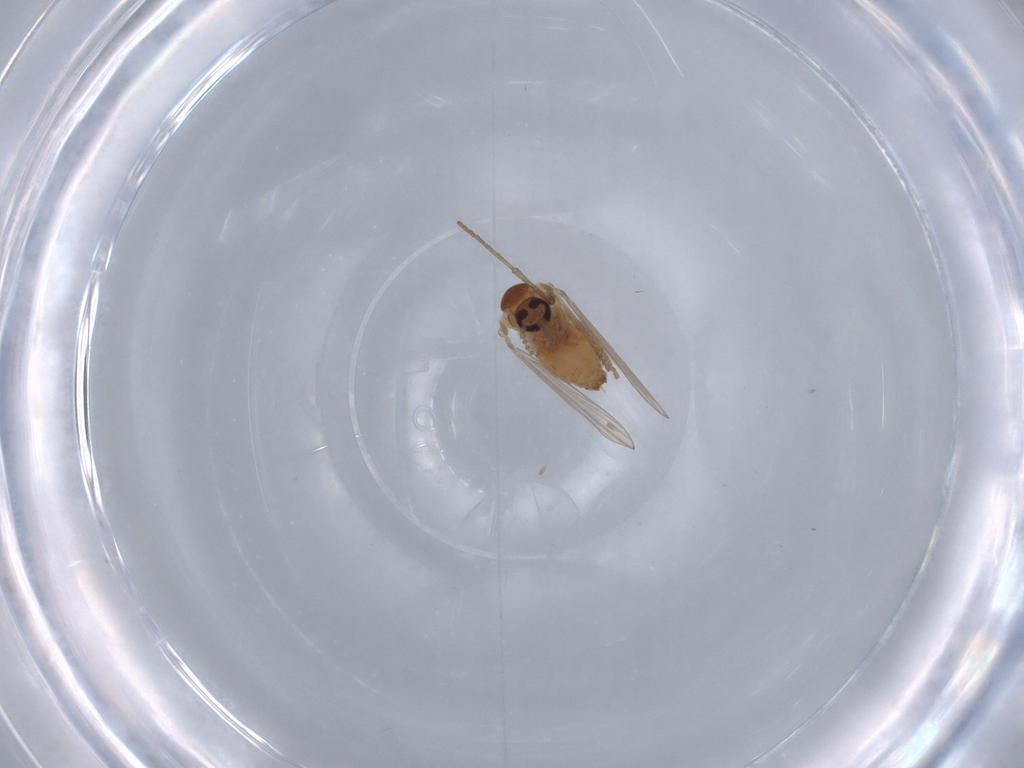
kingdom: Animalia
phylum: Arthropoda
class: Insecta
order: Diptera
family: Psychodidae
